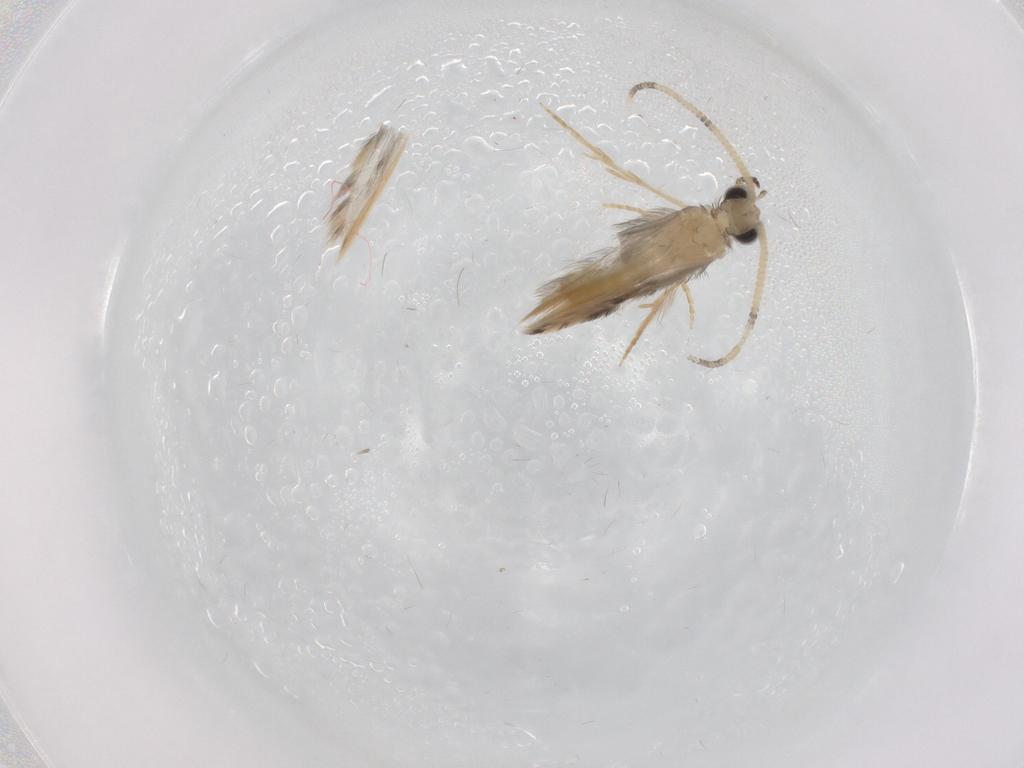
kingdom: Animalia
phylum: Arthropoda
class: Insecta
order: Trichoptera
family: Hydroptilidae
